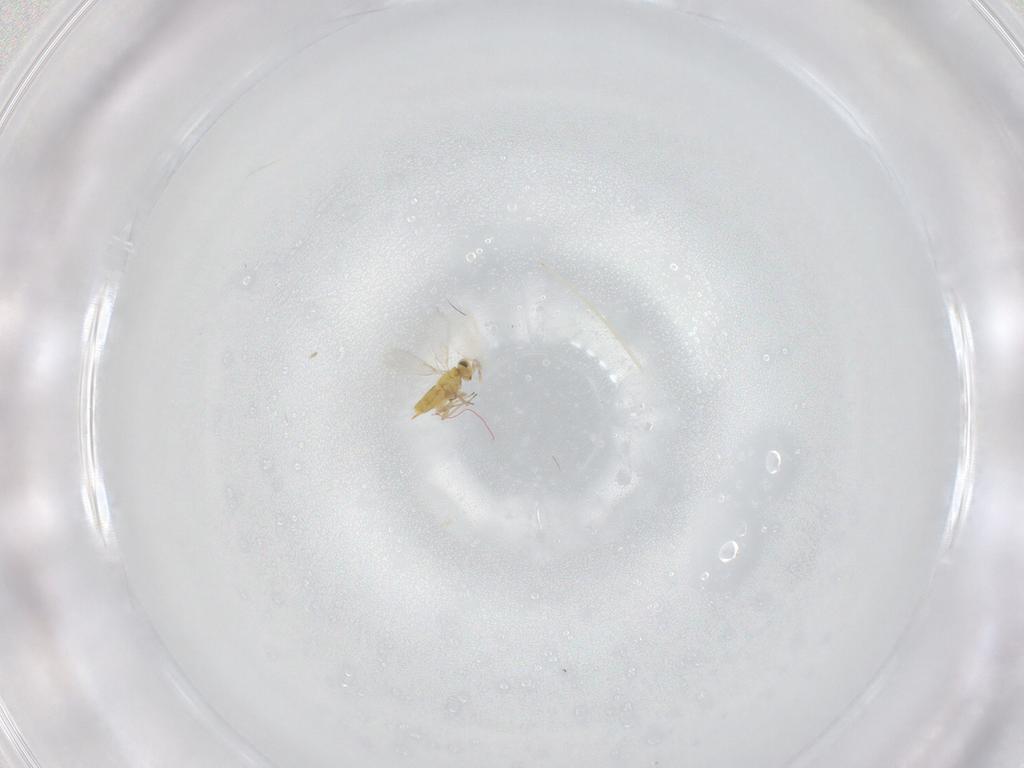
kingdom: Animalia
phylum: Arthropoda
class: Insecta
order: Hymenoptera
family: Aphelinidae
